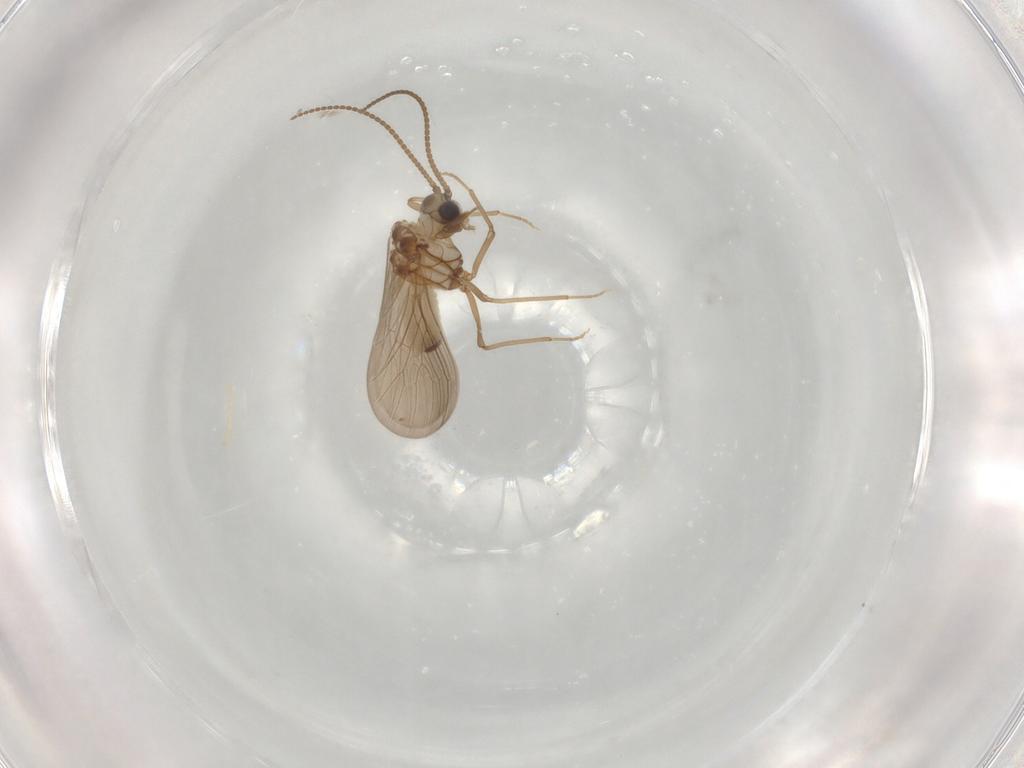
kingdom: Animalia
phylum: Arthropoda
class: Insecta
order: Neuroptera
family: Coniopterygidae
